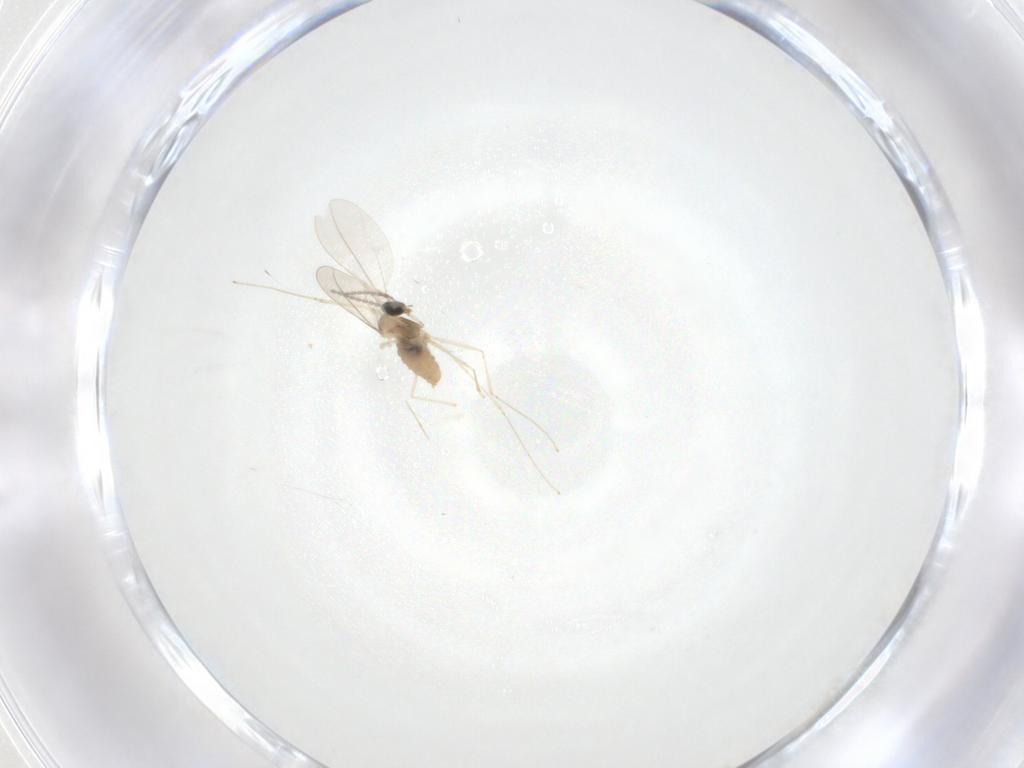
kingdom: Animalia
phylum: Arthropoda
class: Insecta
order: Diptera
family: Cecidomyiidae
